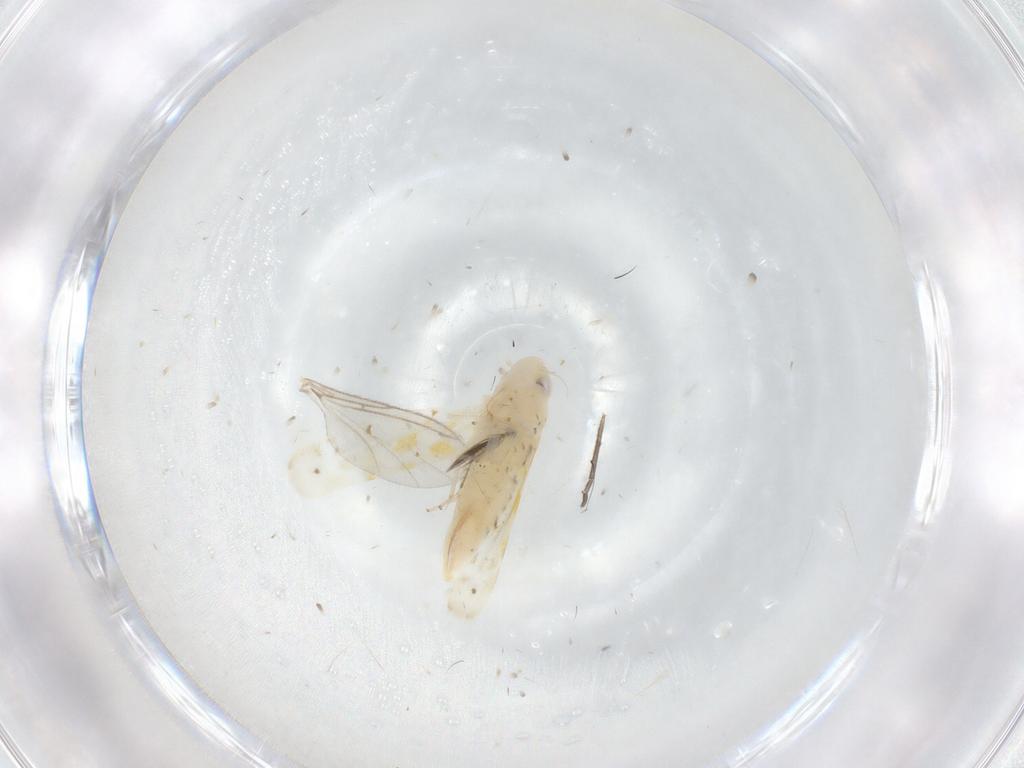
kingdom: Animalia
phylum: Arthropoda
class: Insecta
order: Hemiptera
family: Cicadellidae
